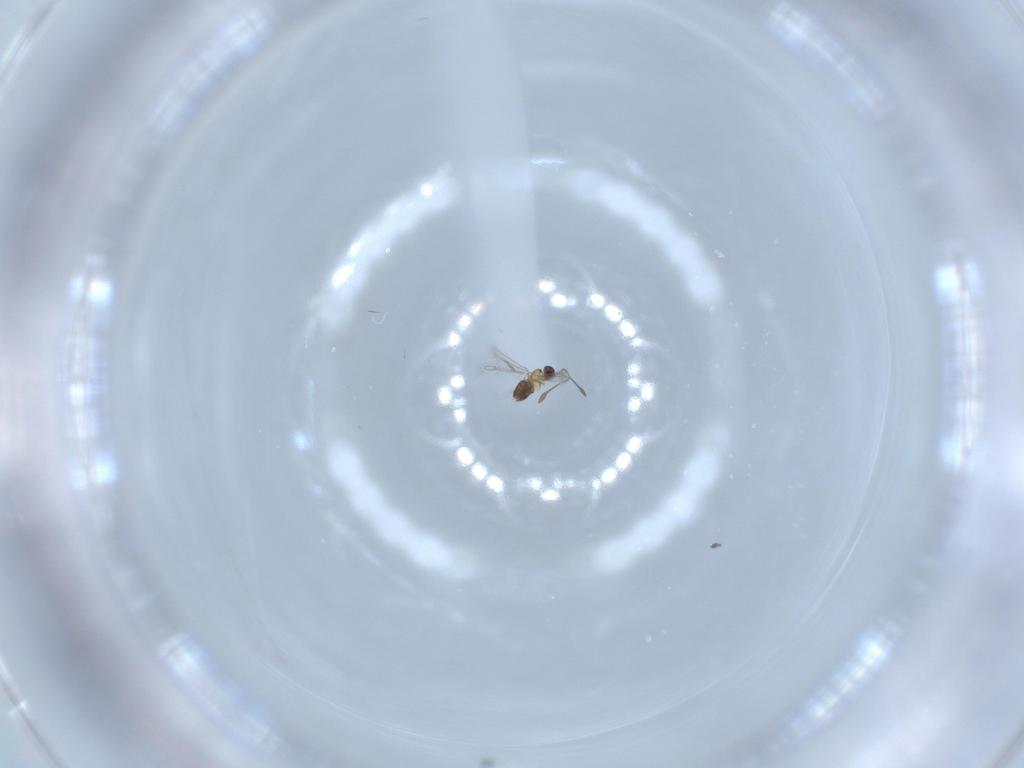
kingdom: Animalia
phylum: Arthropoda
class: Insecta
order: Hymenoptera
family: Mymaridae
